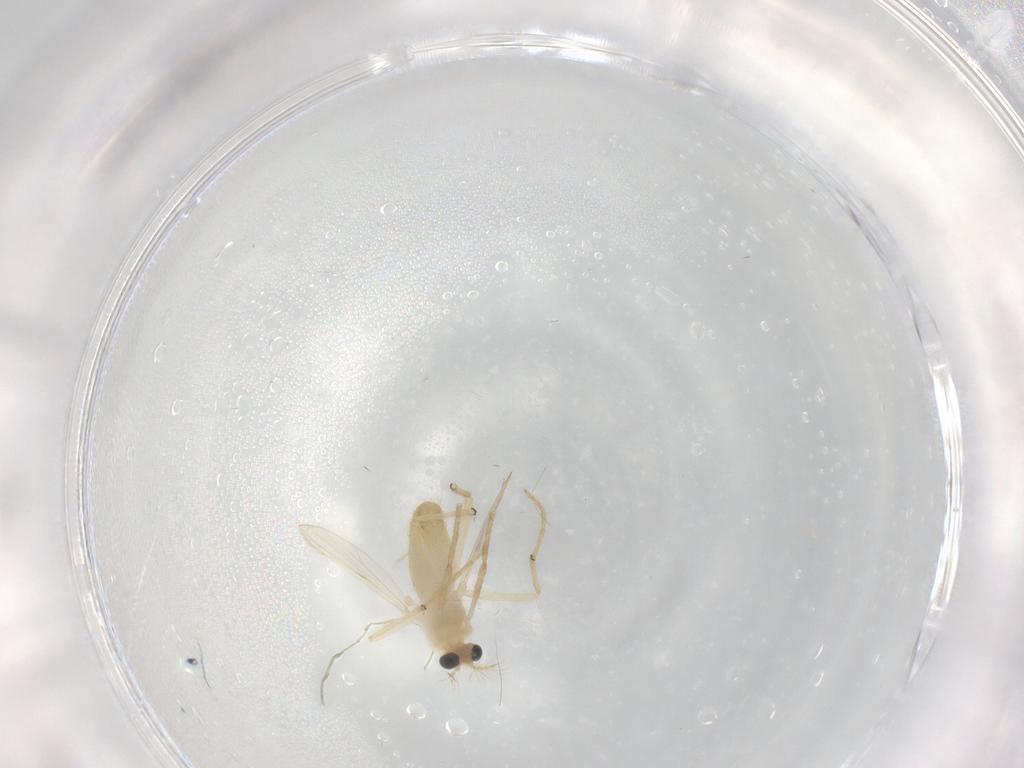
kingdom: Animalia
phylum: Arthropoda
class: Insecta
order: Diptera
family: Chironomidae
